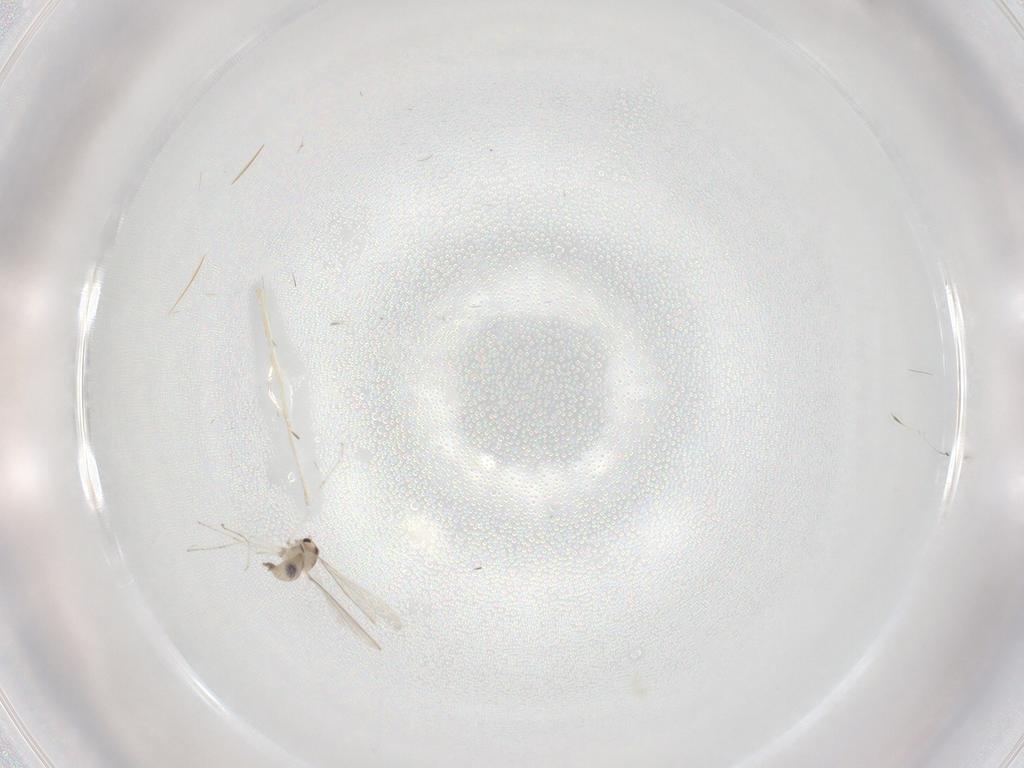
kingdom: Animalia
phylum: Arthropoda
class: Insecta
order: Diptera
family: Cecidomyiidae
